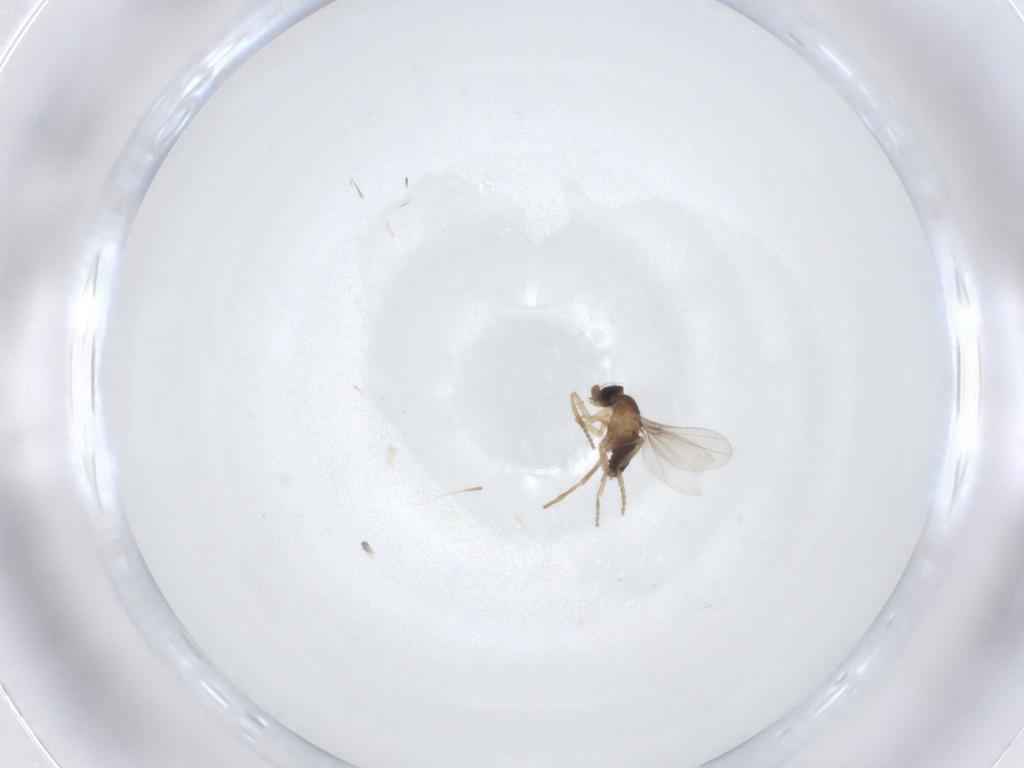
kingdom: Animalia
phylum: Arthropoda
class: Insecta
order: Diptera
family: Phoridae
